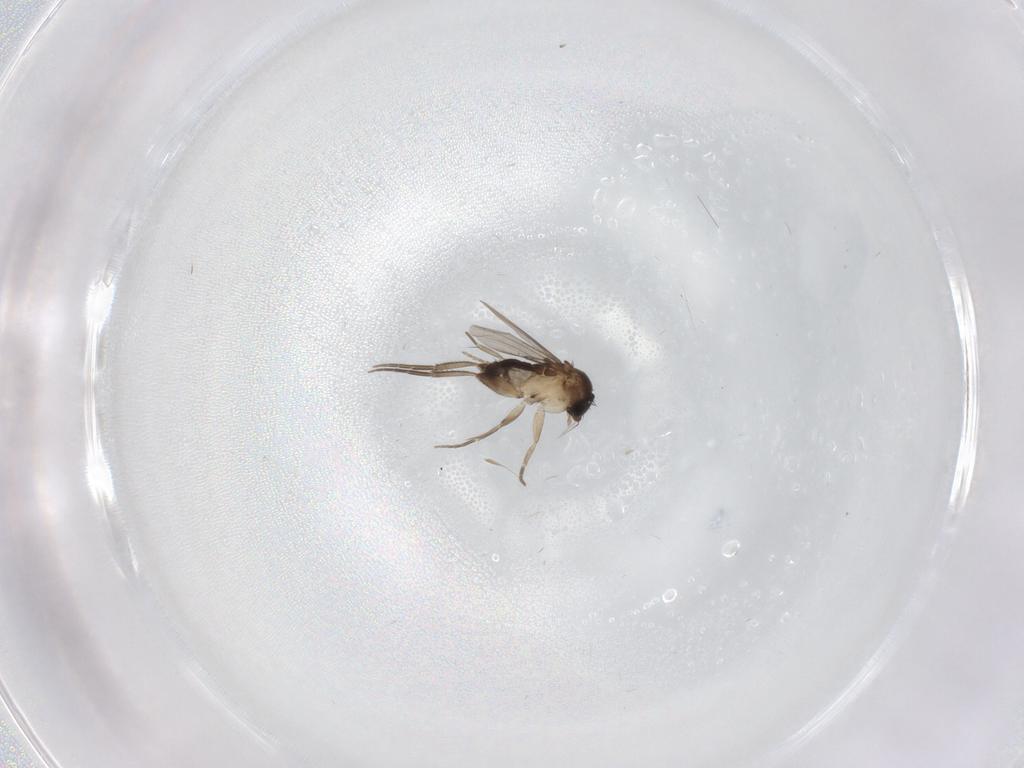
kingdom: Animalia
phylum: Arthropoda
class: Insecta
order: Diptera
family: Phoridae
